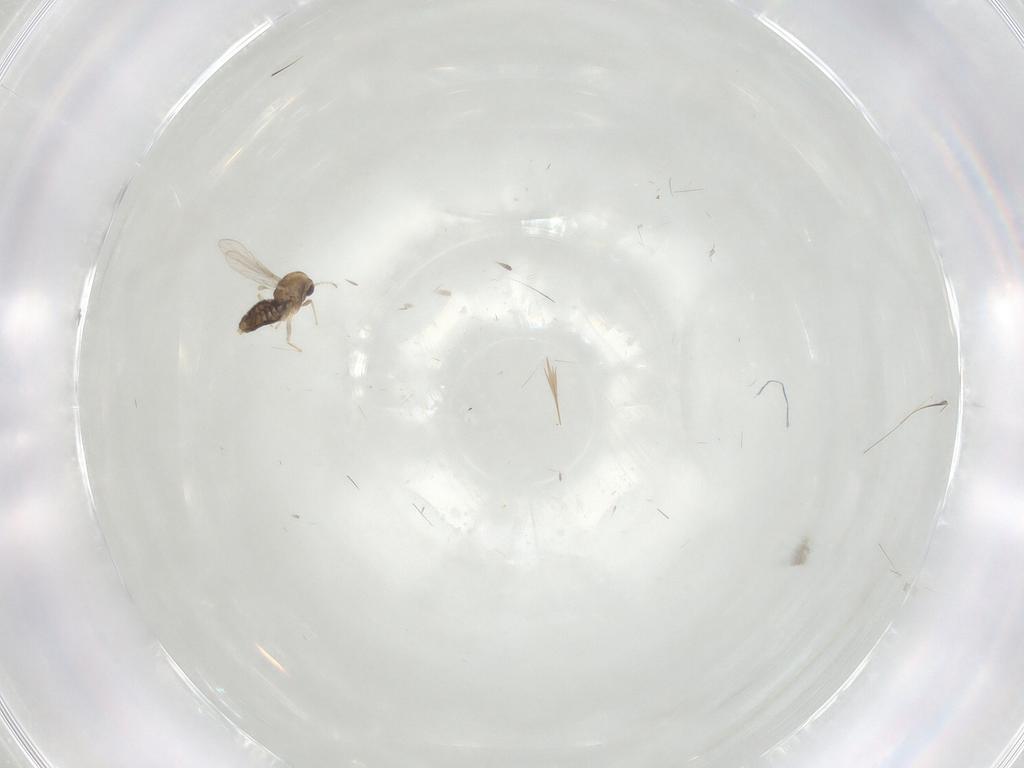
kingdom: Animalia
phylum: Arthropoda
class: Insecta
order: Diptera
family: Chironomidae
